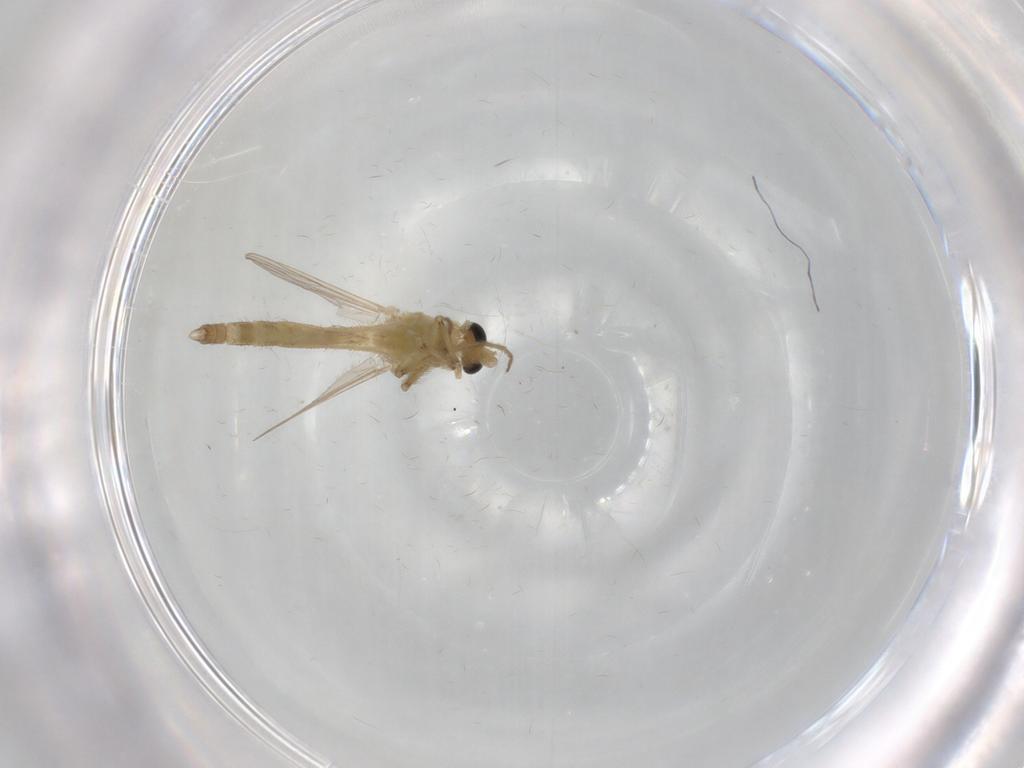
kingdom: Animalia
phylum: Arthropoda
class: Insecta
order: Diptera
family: Chironomidae
